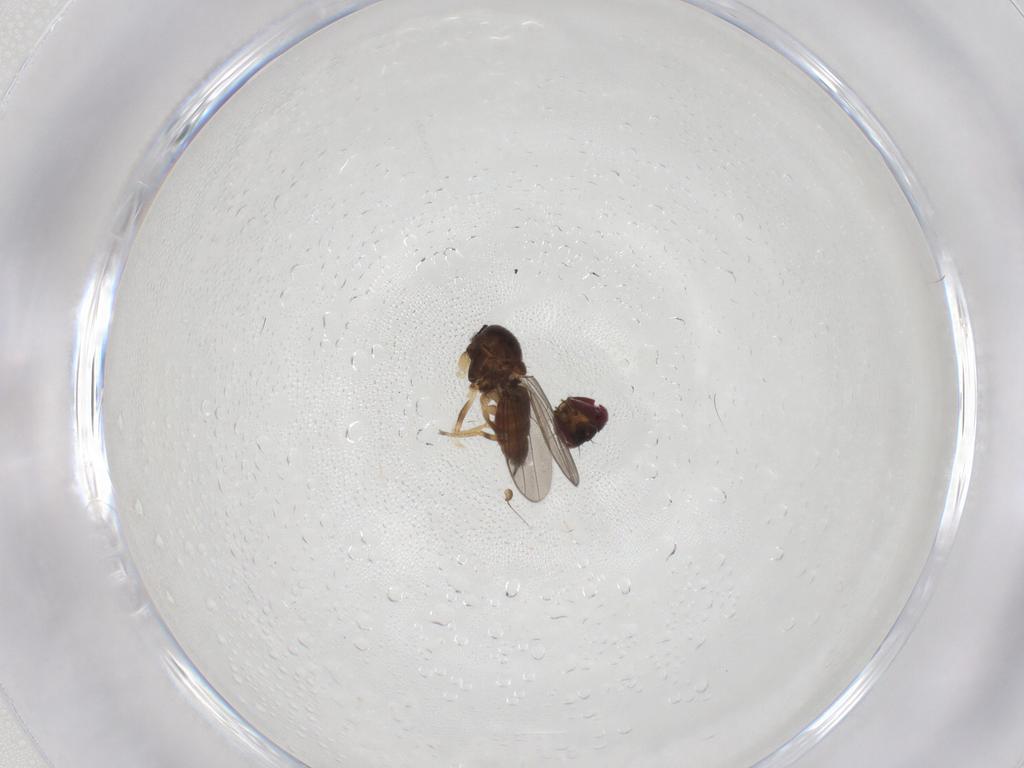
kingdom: Animalia
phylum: Arthropoda
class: Insecta
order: Diptera
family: Chloropidae
